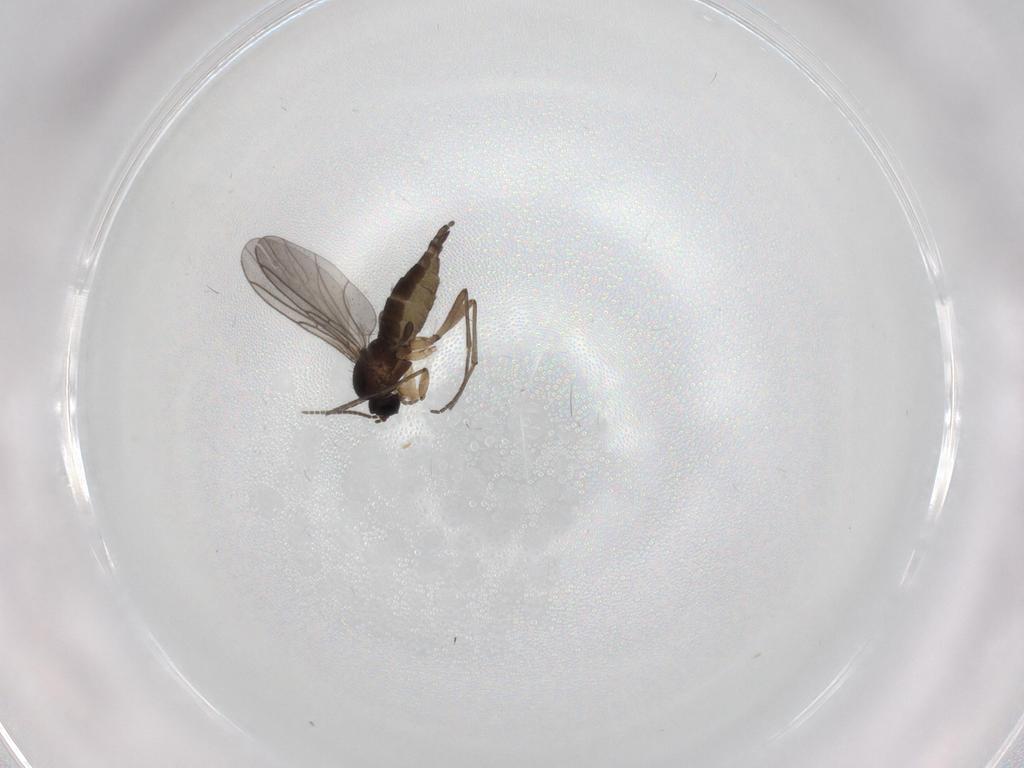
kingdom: Animalia
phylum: Arthropoda
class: Insecta
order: Diptera
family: Sciaridae
